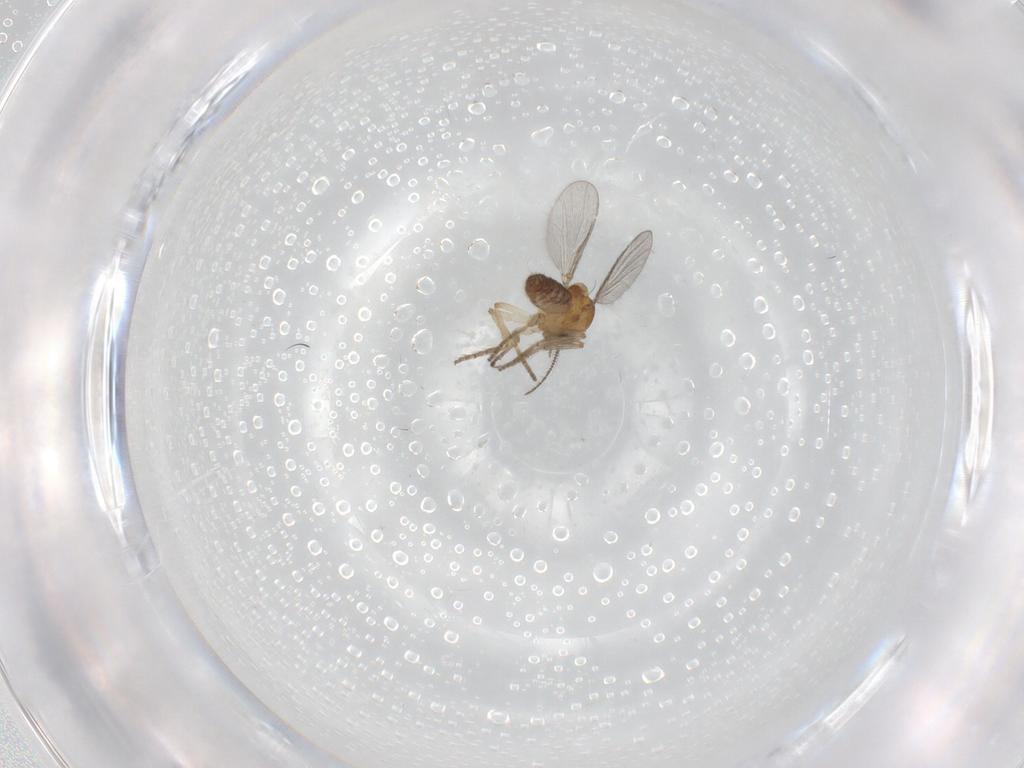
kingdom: Animalia
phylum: Arthropoda
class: Insecta
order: Diptera
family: Dolichopodidae
